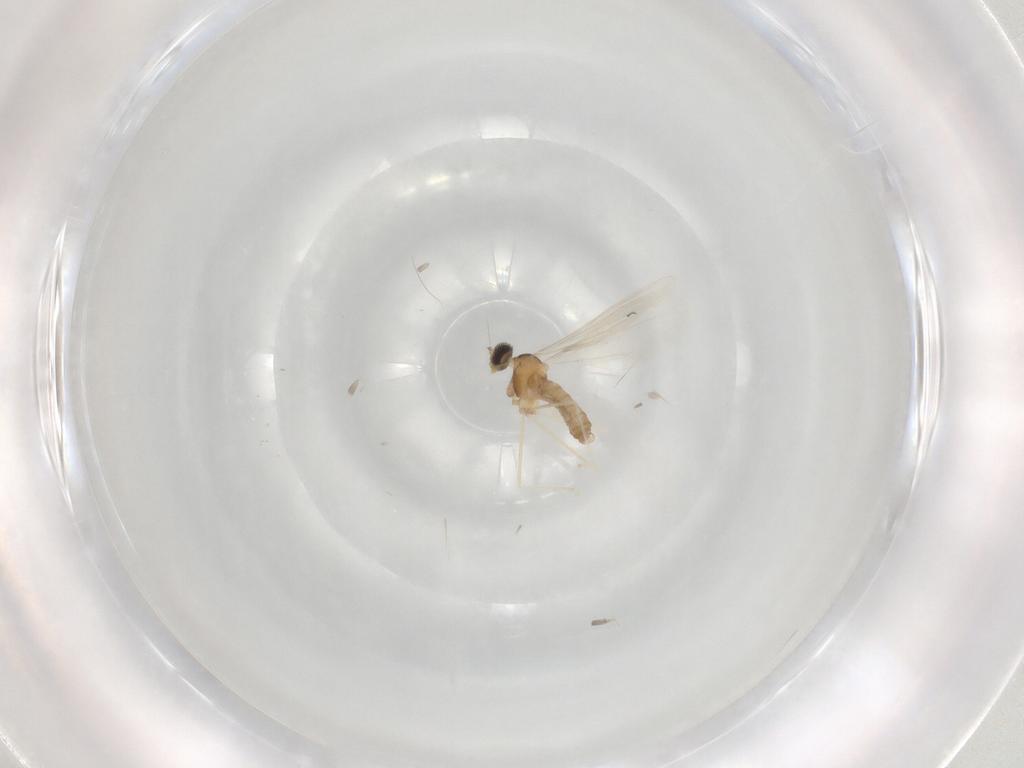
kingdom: Animalia
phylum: Arthropoda
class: Insecta
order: Diptera
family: Cecidomyiidae
